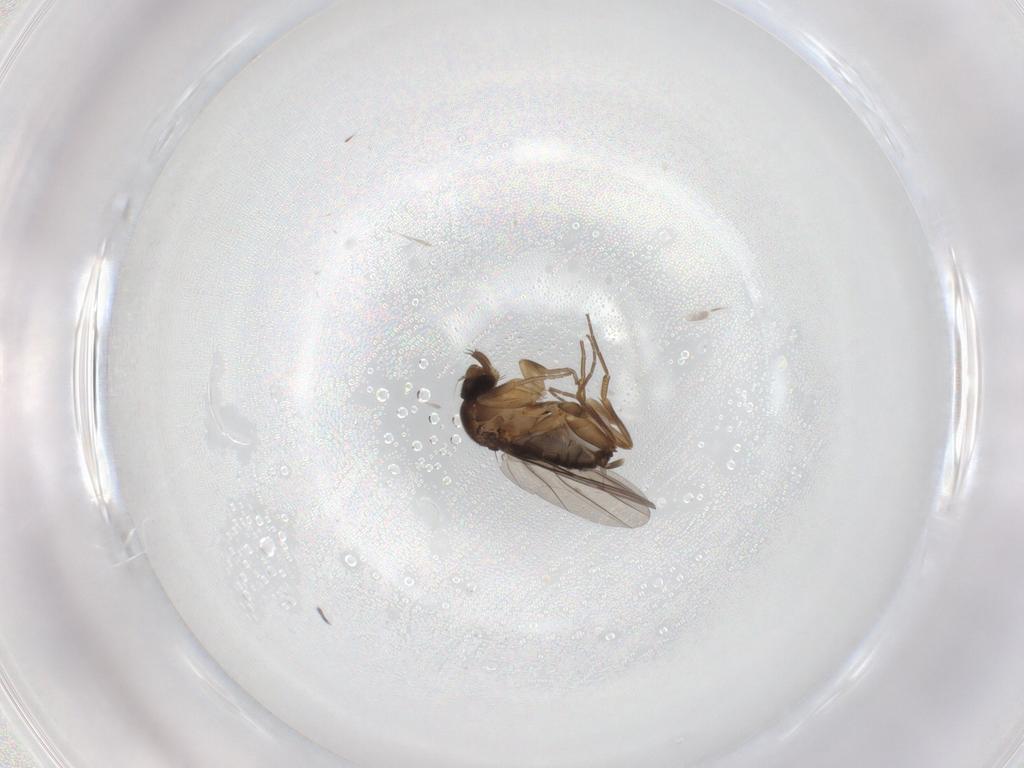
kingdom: Animalia
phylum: Arthropoda
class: Insecta
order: Diptera
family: Phoridae
